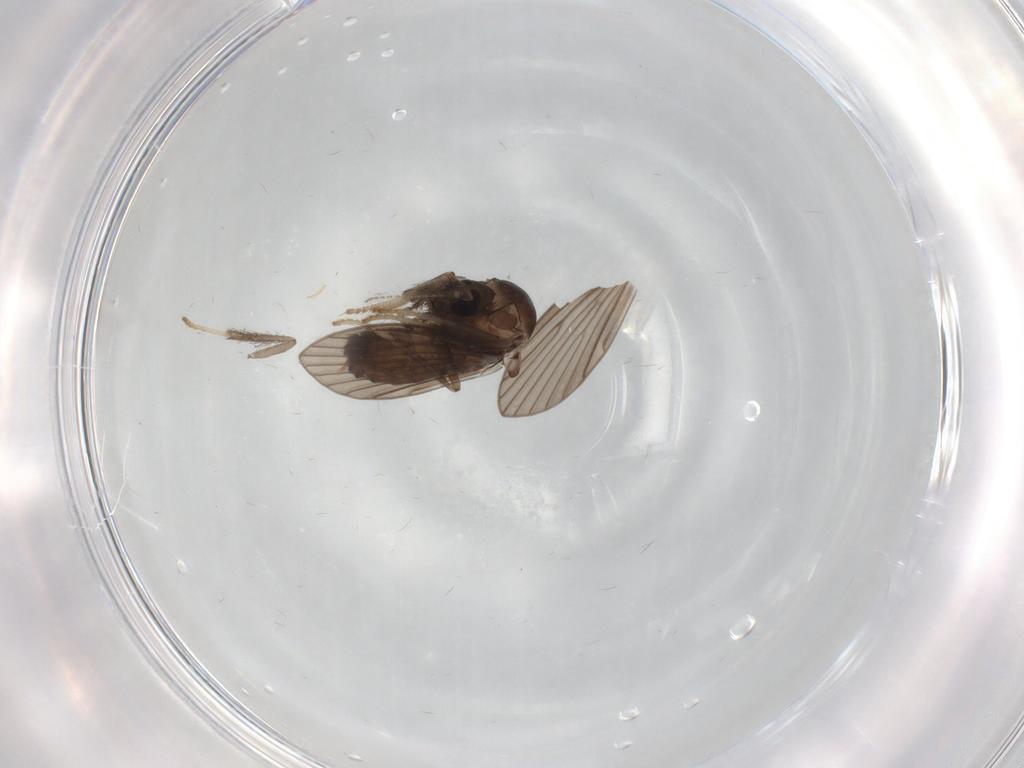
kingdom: Animalia
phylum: Arthropoda
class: Insecta
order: Diptera
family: Psychodidae
